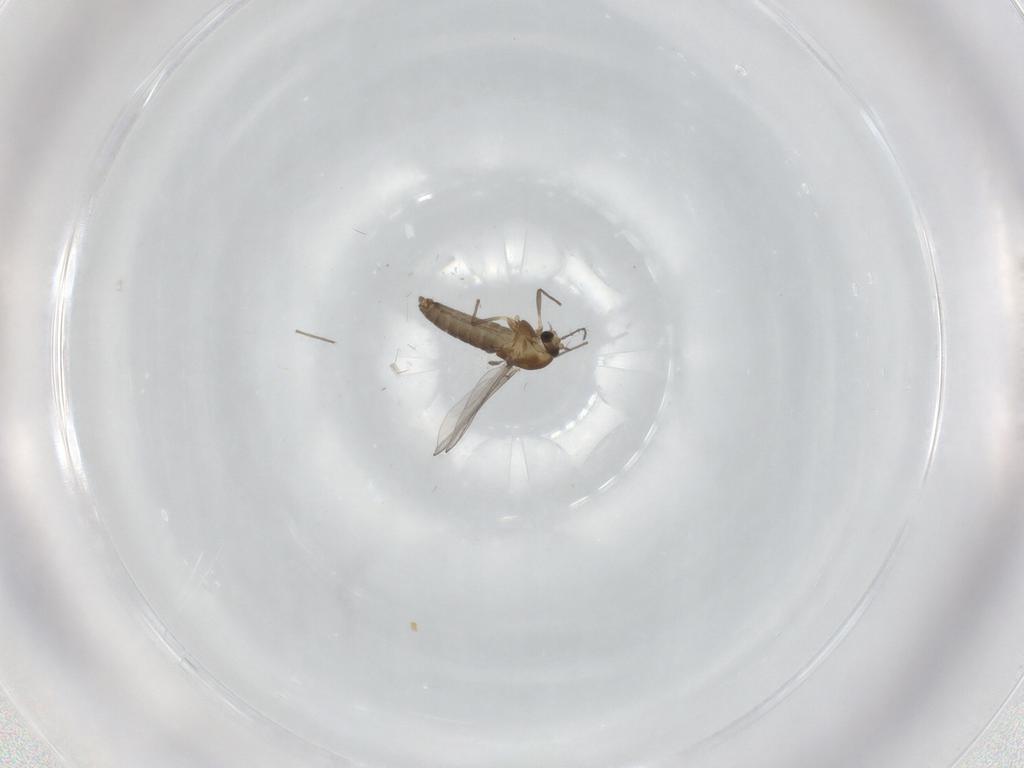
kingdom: Animalia
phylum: Arthropoda
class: Insecta
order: Diptera
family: Chironomidae
